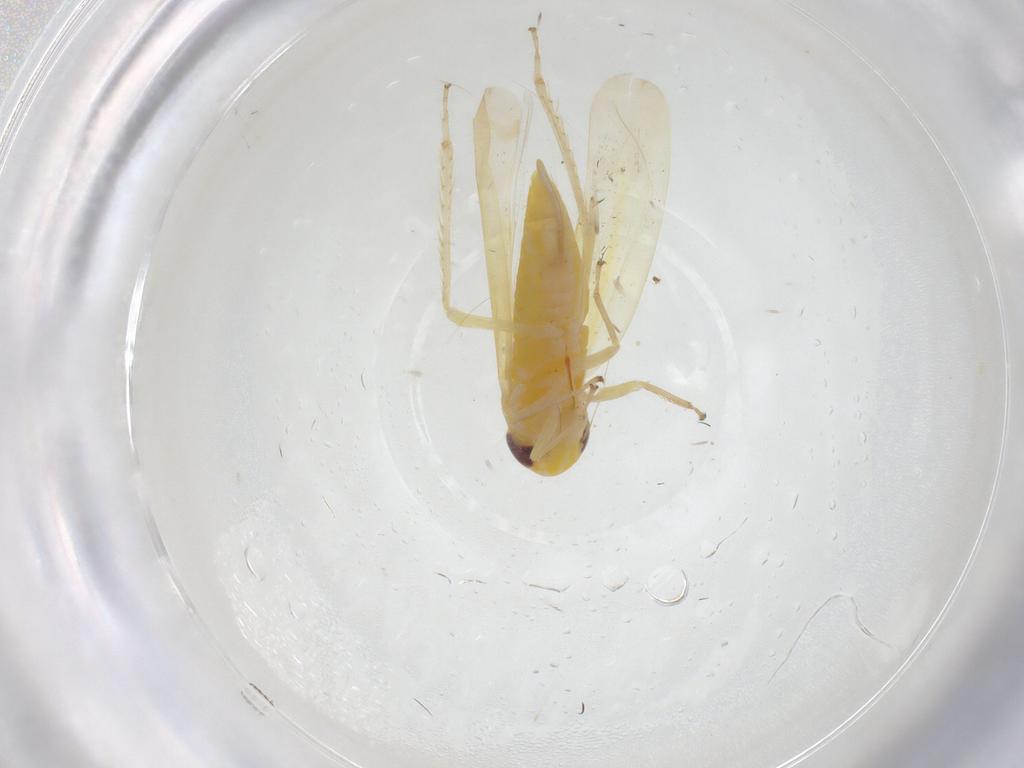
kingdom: Animalia
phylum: Arthropoda
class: Insecta
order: Hemiptera
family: Cicadellidae
